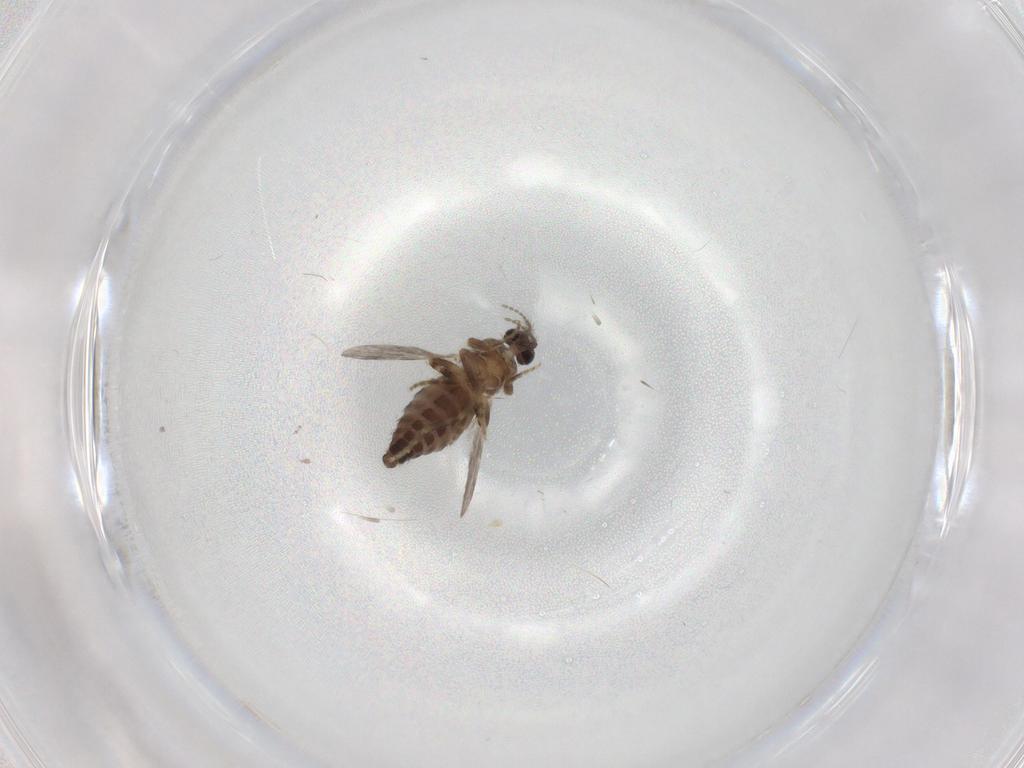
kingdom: Animalia
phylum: Arthropoda
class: Insecta
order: Diptera
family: Ceratopogonidae
